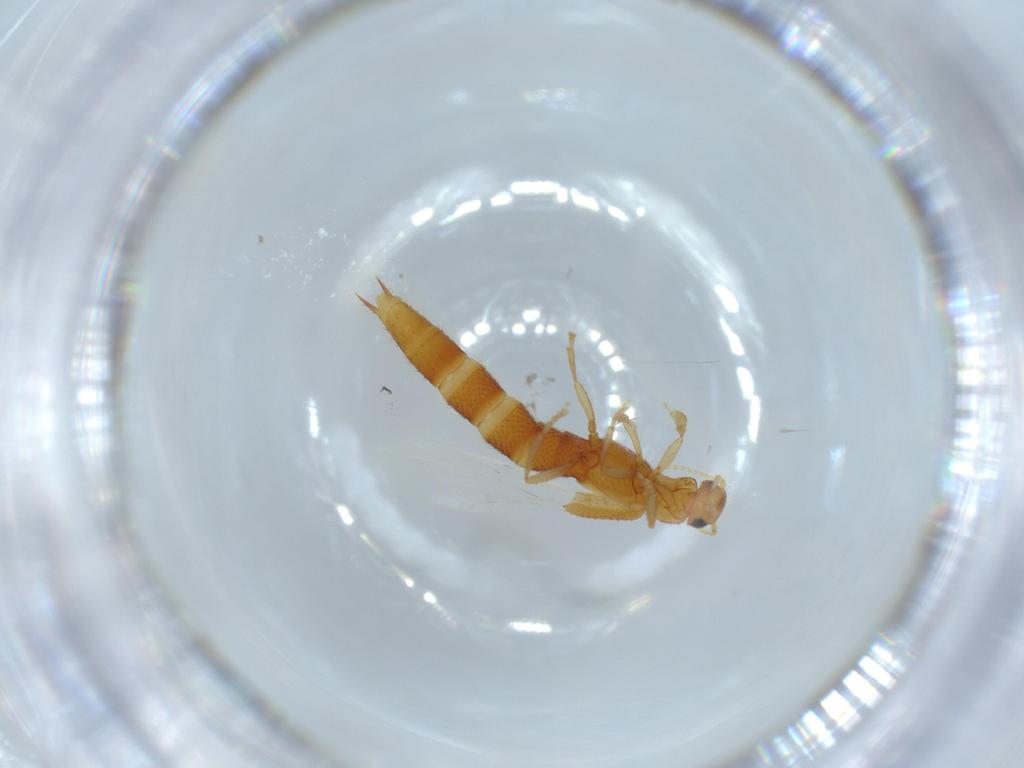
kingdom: Animalia
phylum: Arthropoda
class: Insecta
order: Coleoptera
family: Staphylinidae
